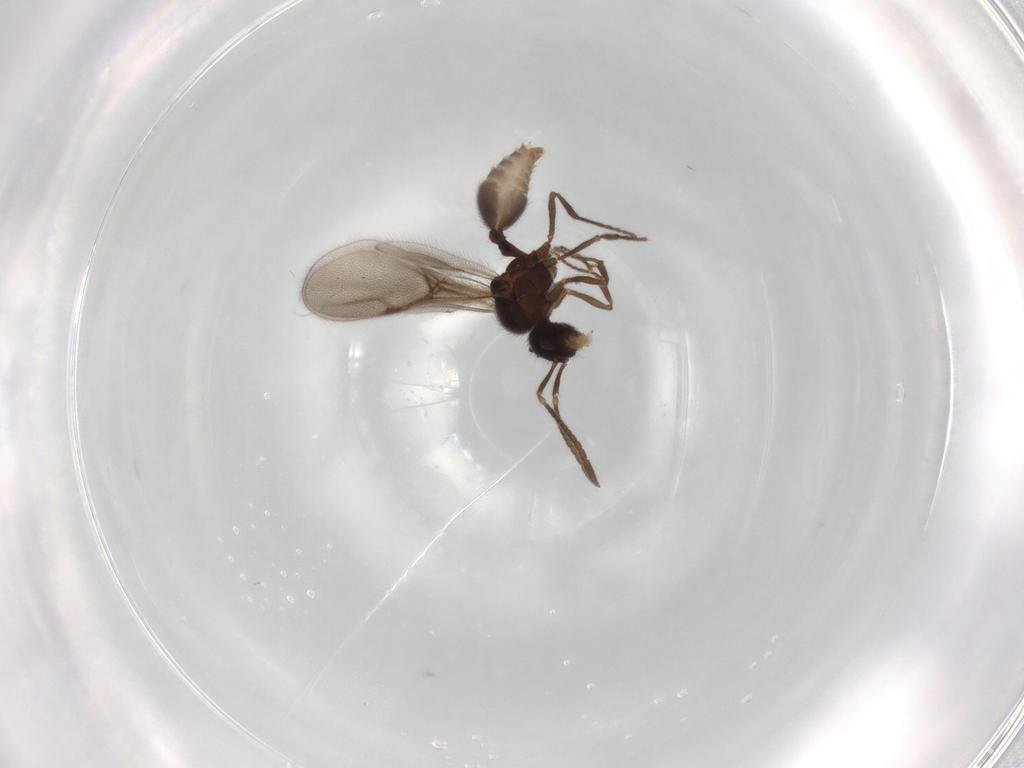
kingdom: Animalia
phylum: Arthropoda
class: Insecta
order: Hymenoptera
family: Formicidae
